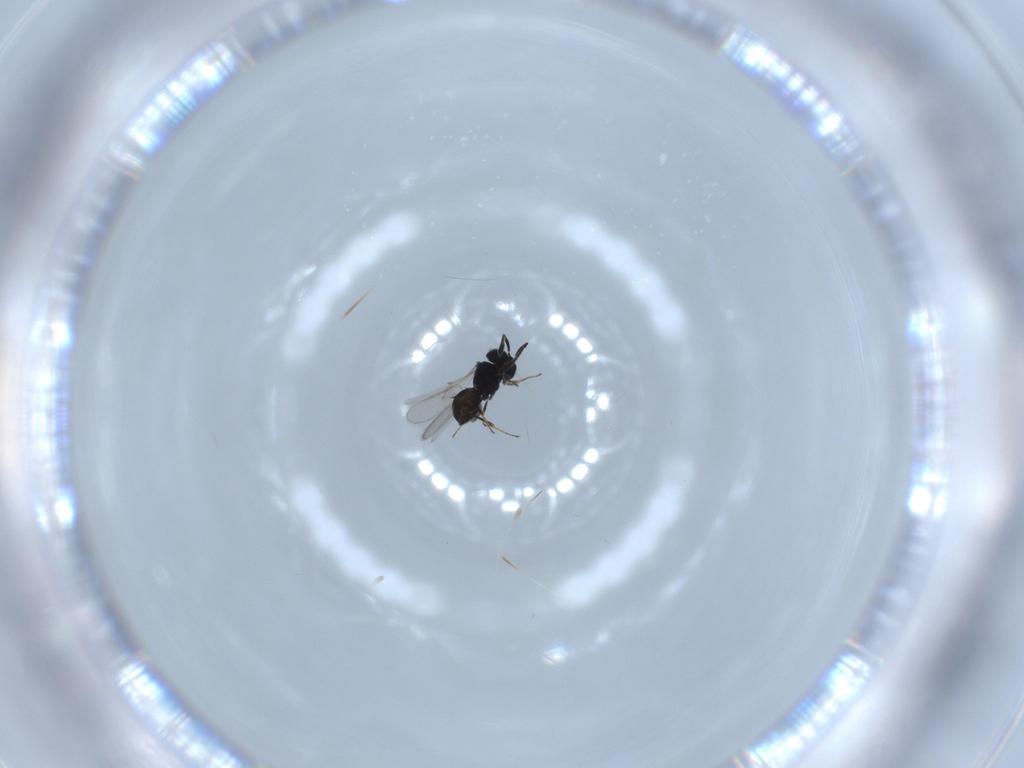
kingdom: Animalia
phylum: Arthropoda
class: Insecta
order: Hymenoptera
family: Scelionidae
